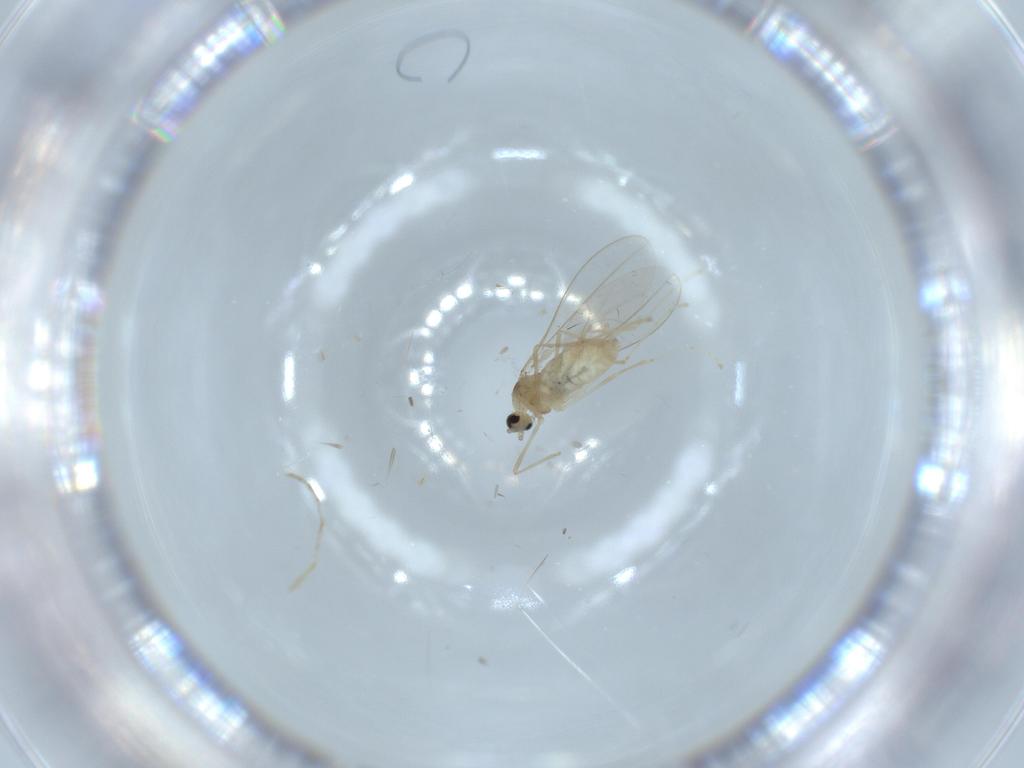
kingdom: Animalia
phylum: Arthropoda
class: Insecta
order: Diptera
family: Cecidomyiidae
